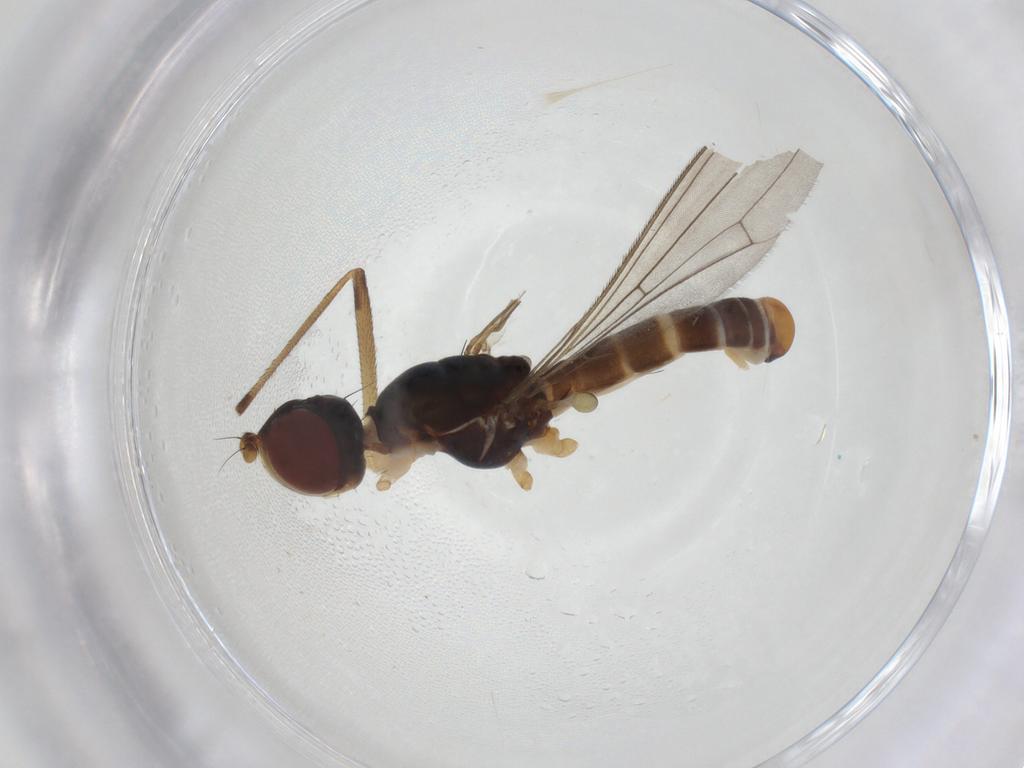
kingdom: Animalia
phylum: Arthropoda
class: Insecta
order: Diptera
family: Micropezidae
